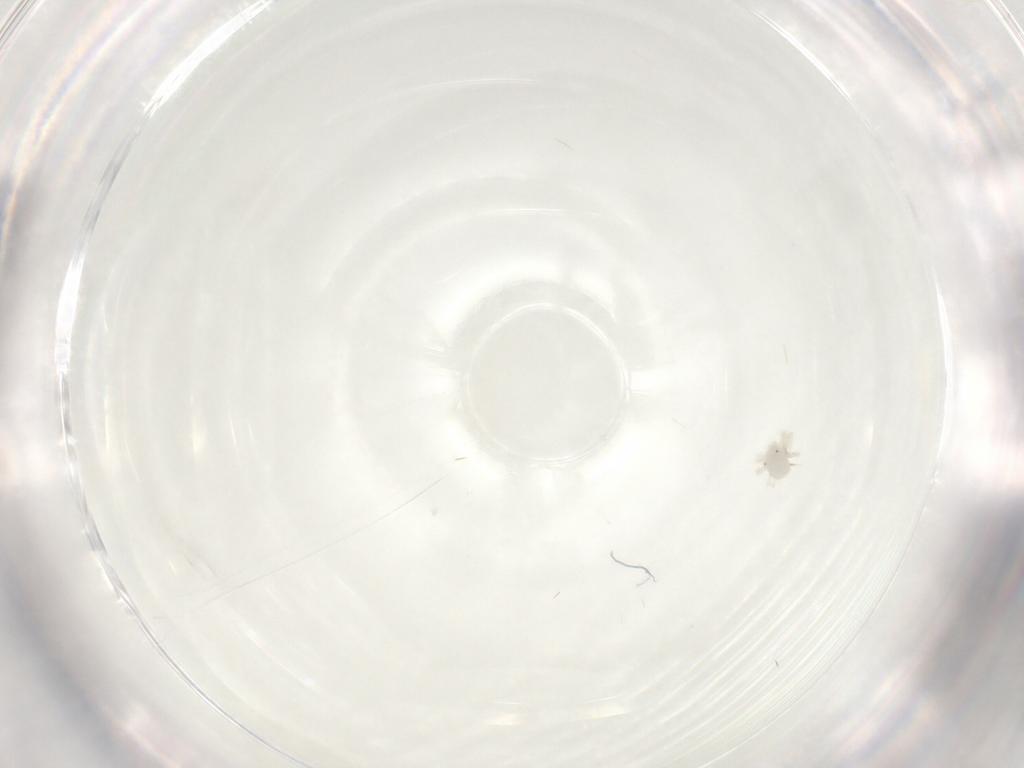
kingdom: Animalia
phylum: Arthropoda
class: Arachnida
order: Trombidiformes
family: Anystidae
